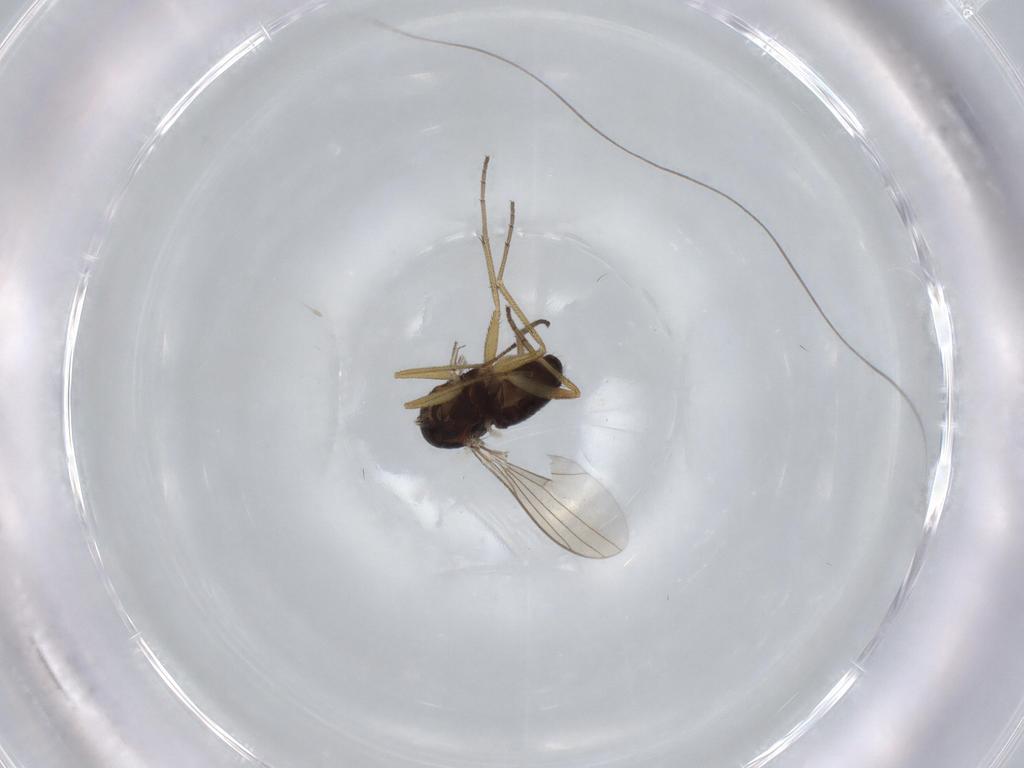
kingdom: Animalia
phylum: Arthropoda
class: Insecta
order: Diptera
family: Dolichopodidae
